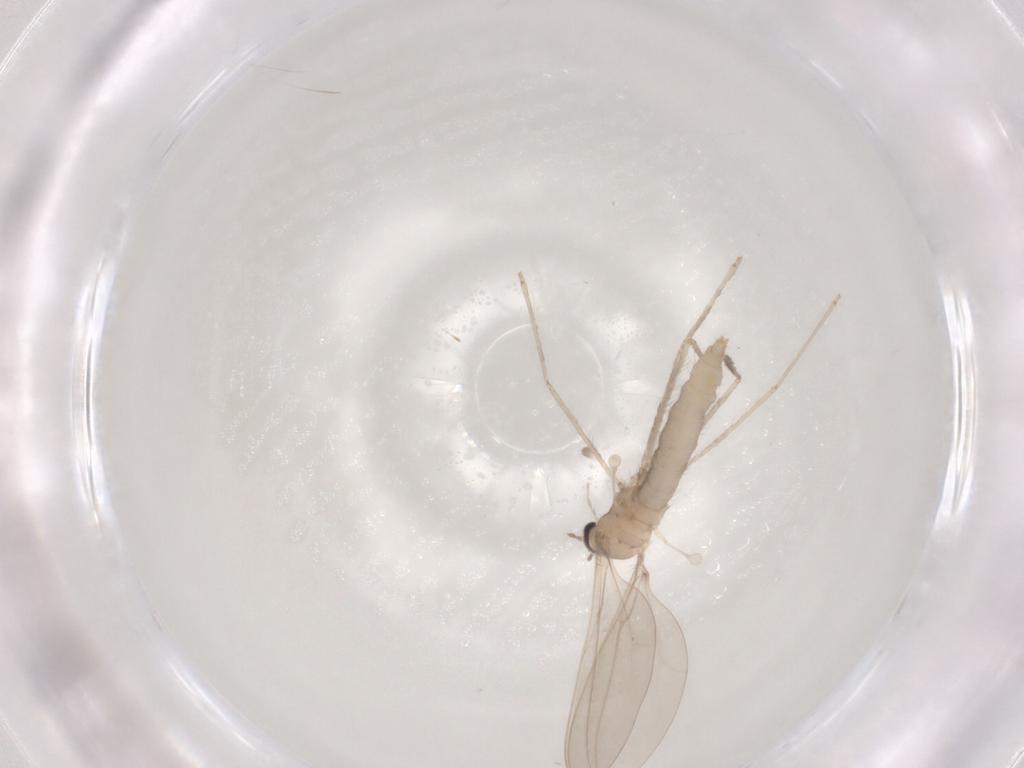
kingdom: Animalia
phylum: Arthropoda
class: Insecta
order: Diptera
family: Cecidomyiidae
